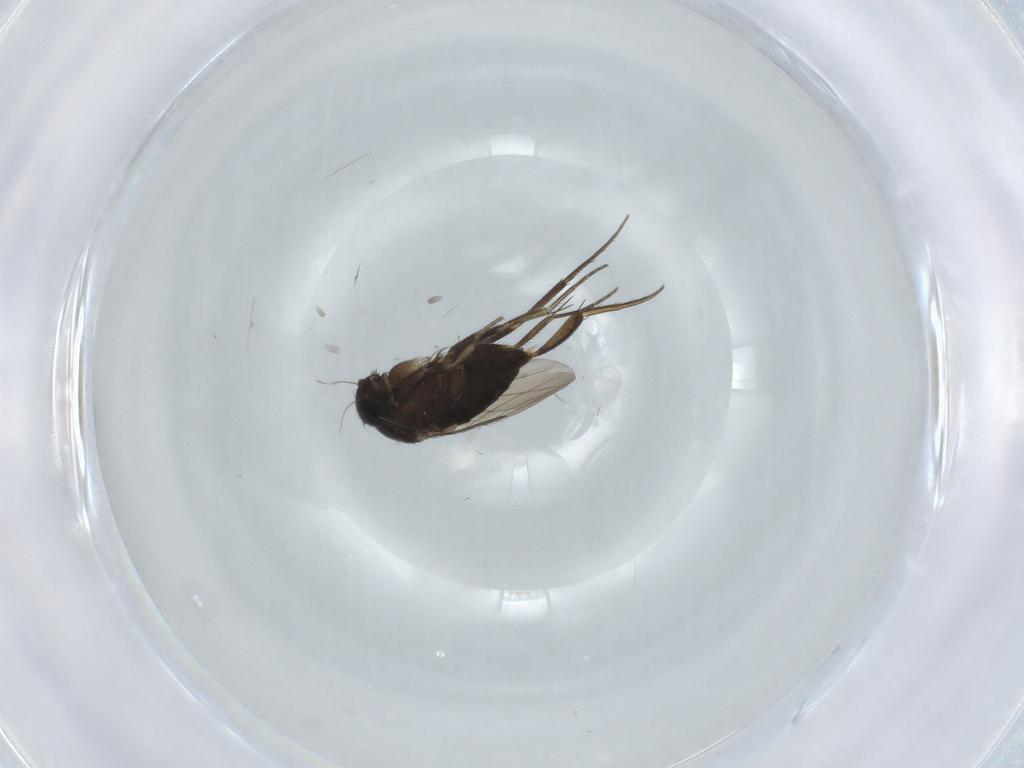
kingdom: Animalia
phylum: Arthropoda
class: Insecta
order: Diptera
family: Phoridae
